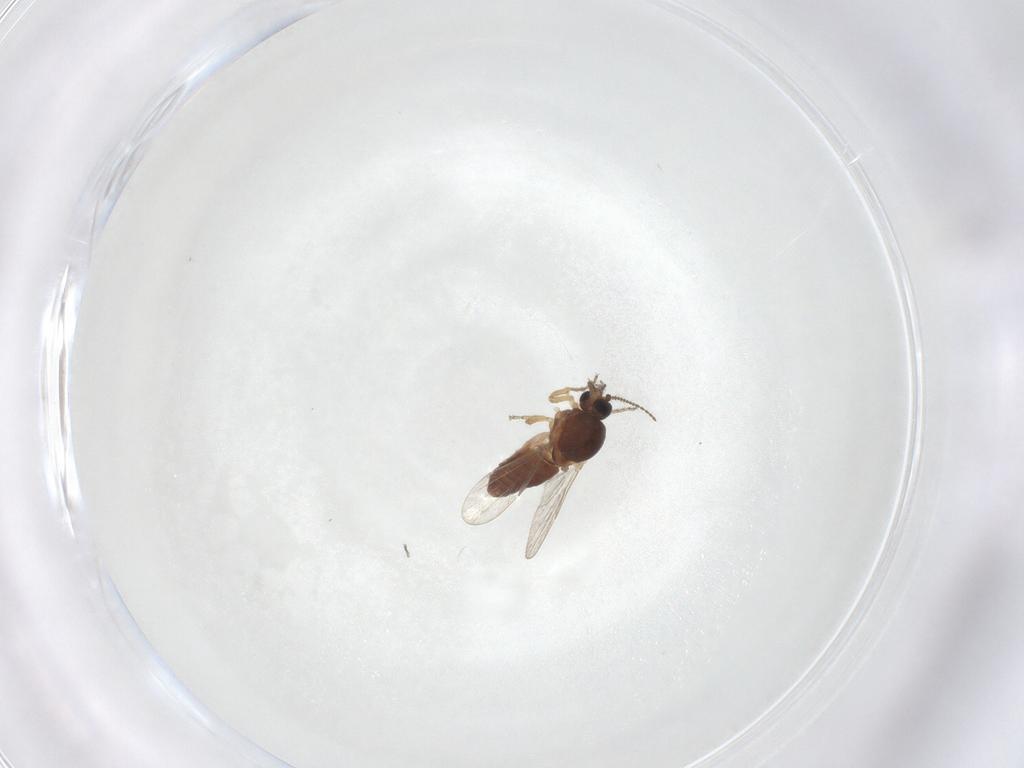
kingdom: Animalia
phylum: Arthropoda
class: Insecta
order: Diptera
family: Ceratopogonidae
